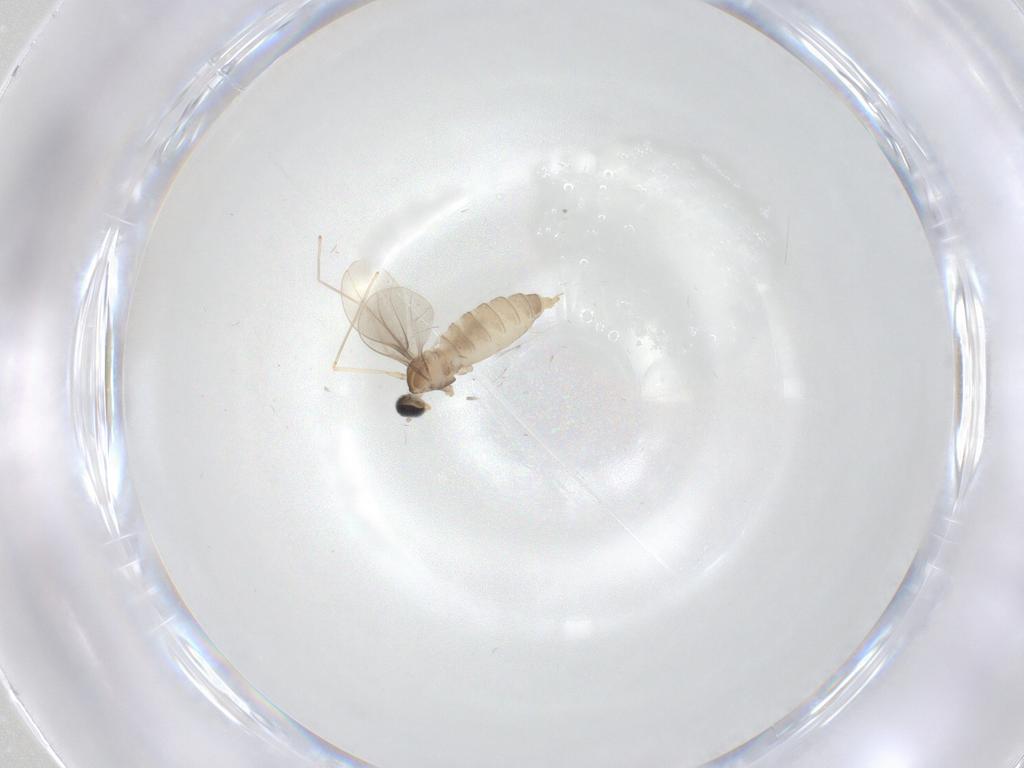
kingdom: Animalia
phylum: Arthropoda
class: Insecta
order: Diptera
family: Cecidomyiidae
